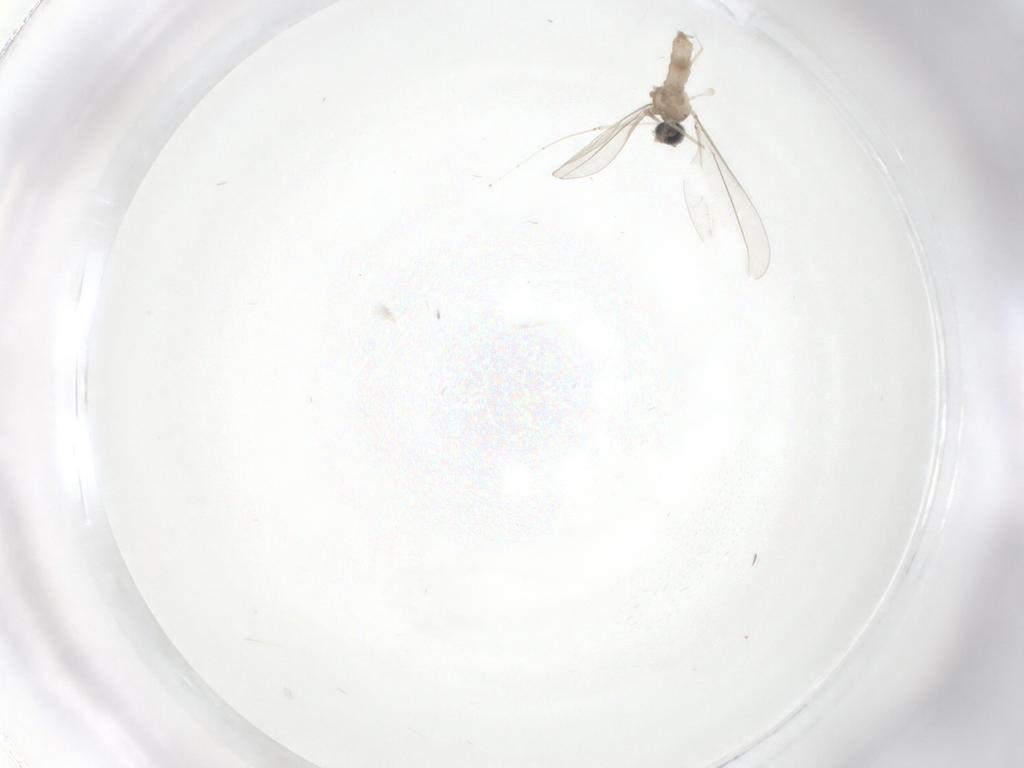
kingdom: Animalia
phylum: Arthropoda
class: Insecta
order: Diptera
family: Cecidomyiidae
